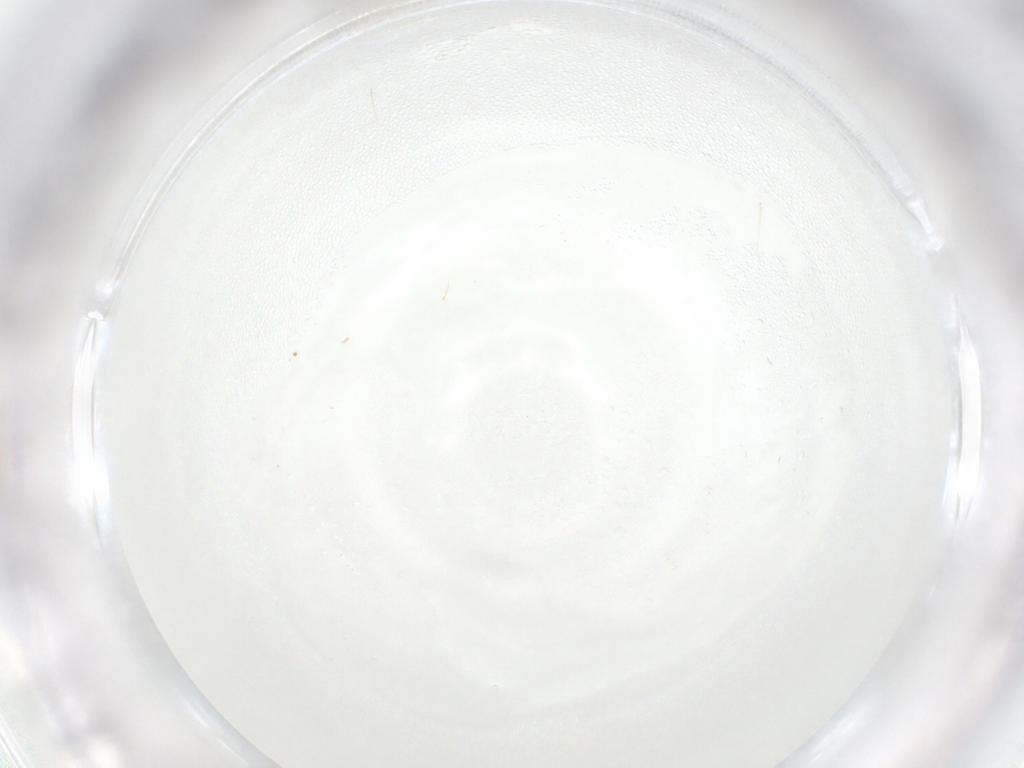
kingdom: Animalia
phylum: Arthropoda
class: Insecta
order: Diptera
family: Cecidomyiidae
